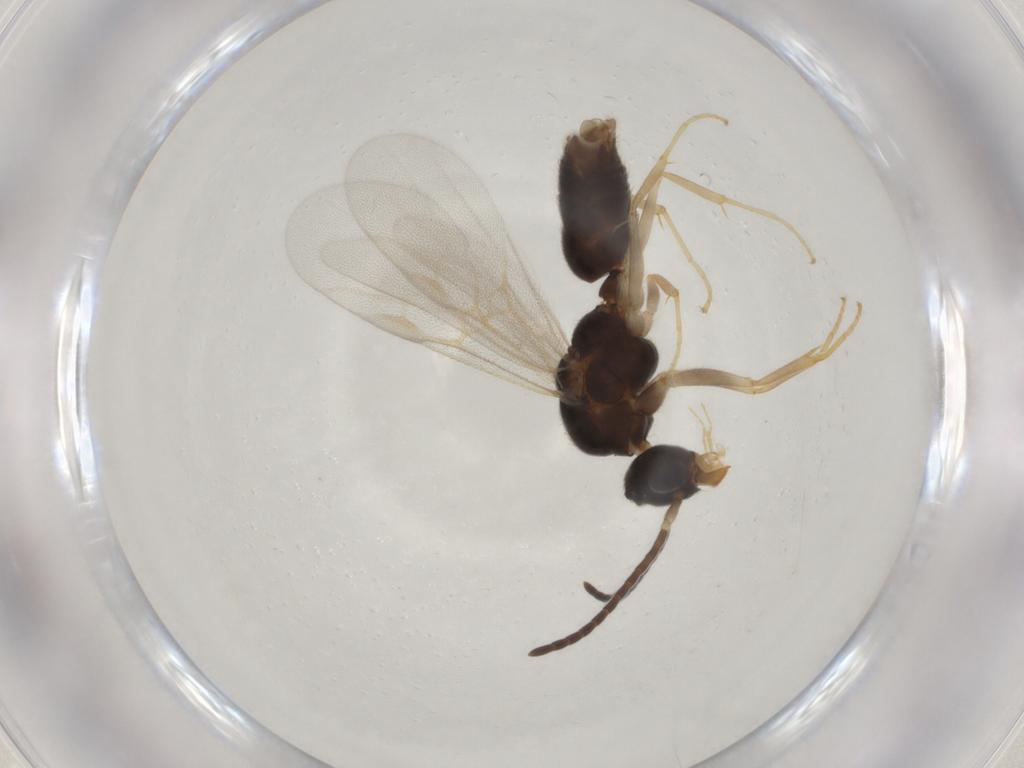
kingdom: Animalia
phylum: Arthropoda
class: Insecta
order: Hymenoptera
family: Formicidae
